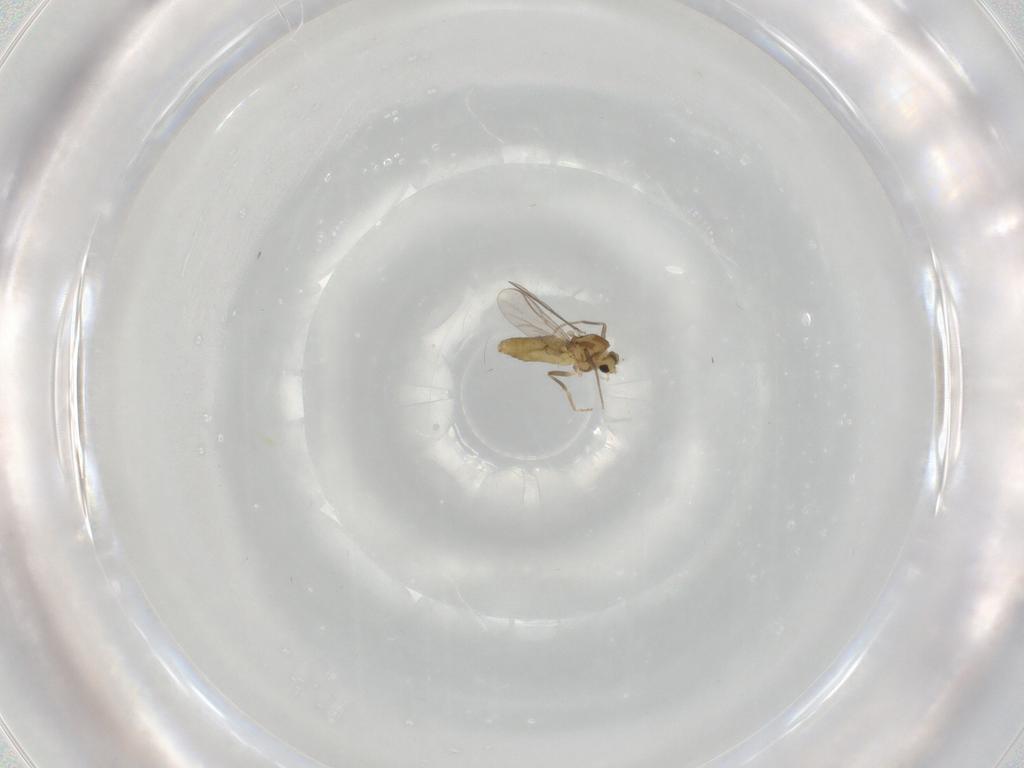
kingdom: Animalia
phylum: Arthropoda
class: Insecta
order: Diptera
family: Chironomidae
